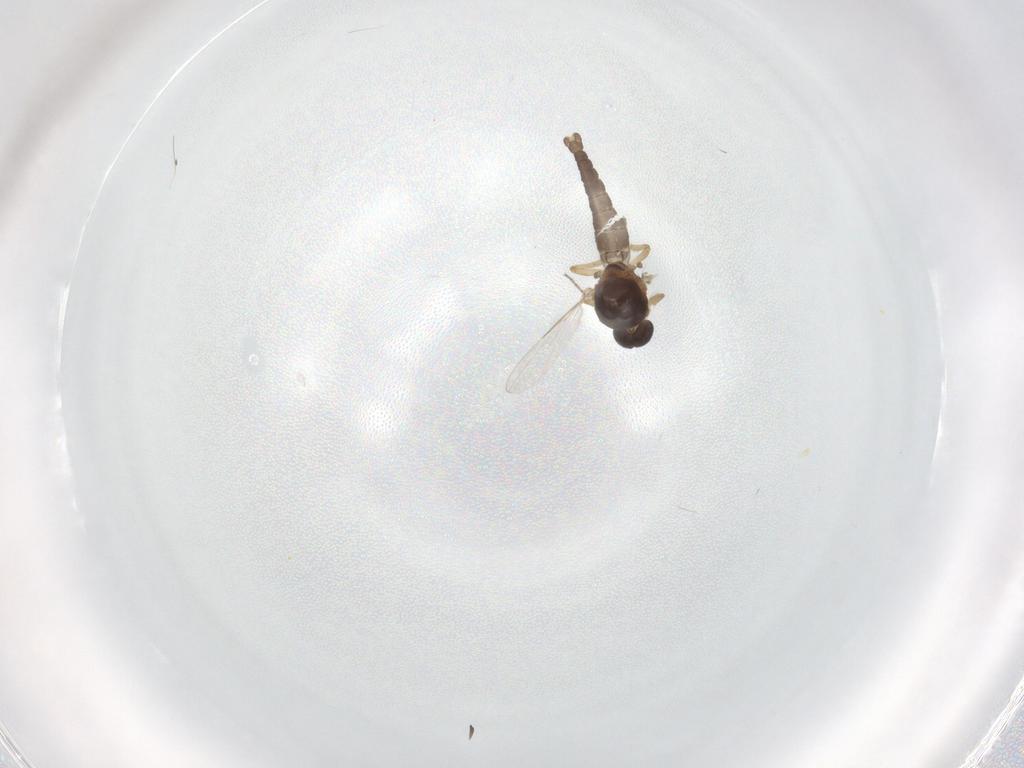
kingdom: Animalia
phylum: Arthropoda
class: Insecta
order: Diptera
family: Ceratopogonidae
